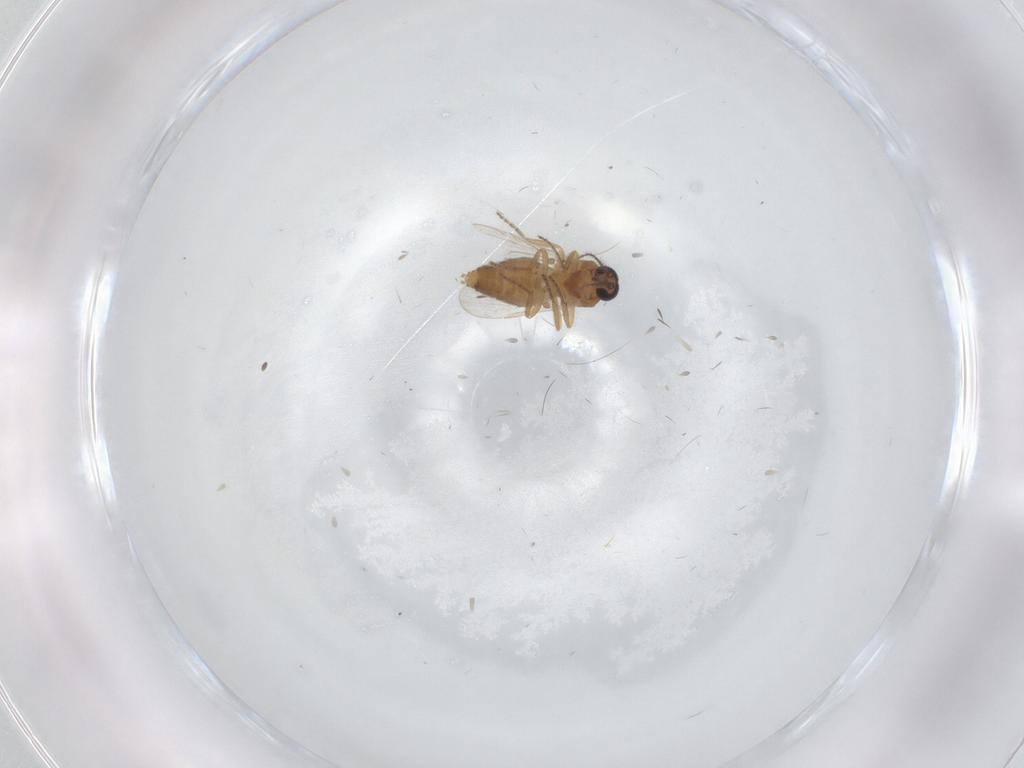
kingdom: Animalia
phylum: Arthropoda
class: Insecta
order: Diptera
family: Ceratopogonidae
